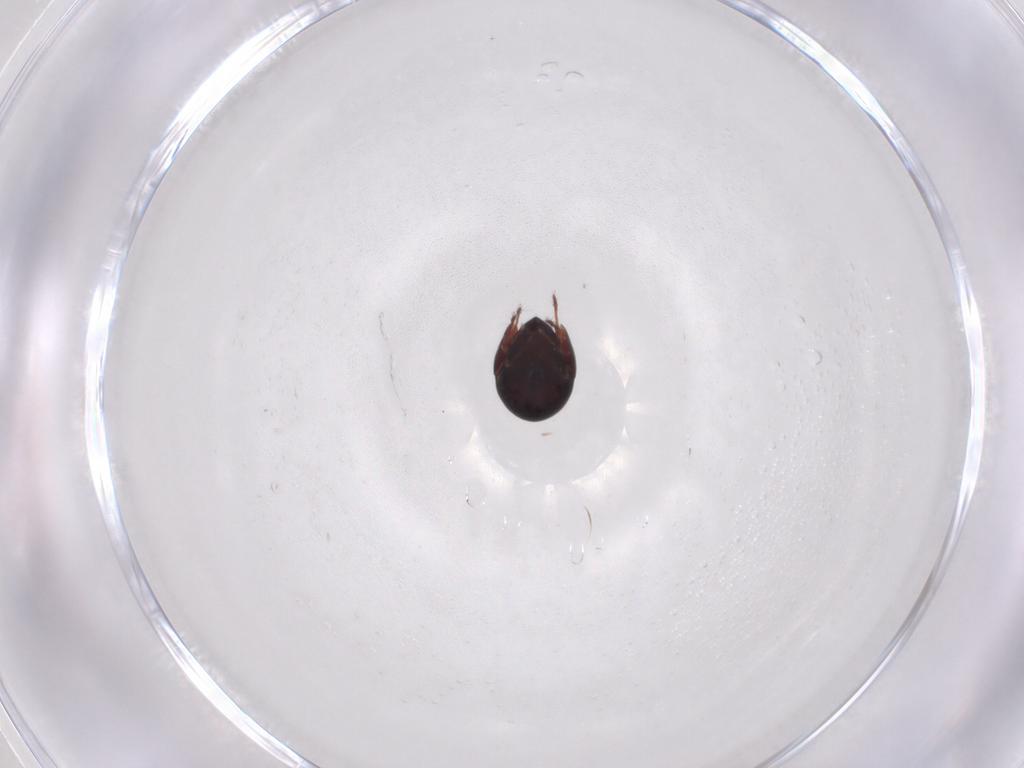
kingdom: Animalia
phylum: Arthropoda
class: Arachnida
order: Sarcoptiformes
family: Galumnidae
